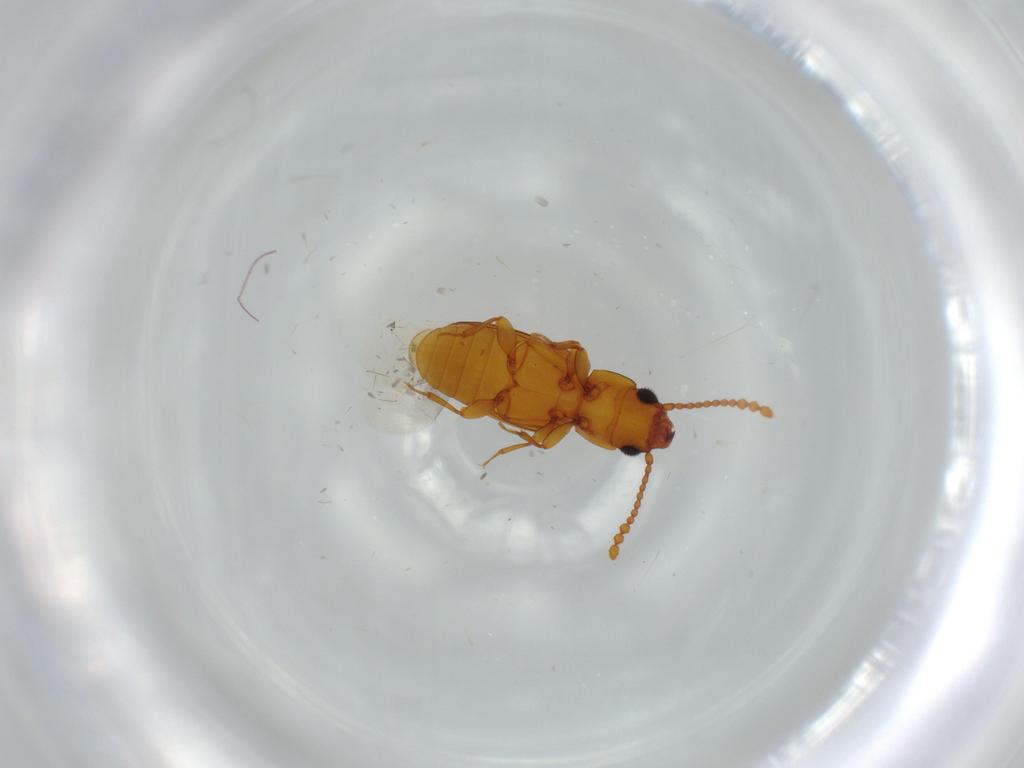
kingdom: Animalia
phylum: Arthropoda
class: Insecta
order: Coleoptera
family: Laemophloeidae
